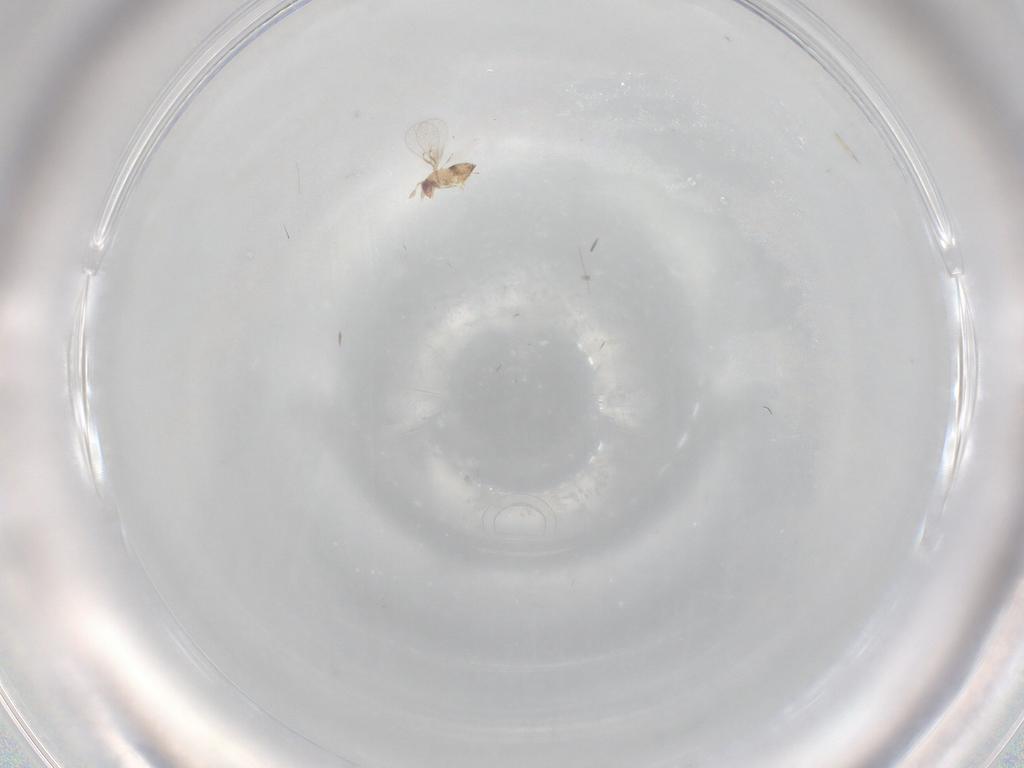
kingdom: Animalia
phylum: Arthropoda
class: Insecta
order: Hymenoptera
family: Trichogrammatidae
